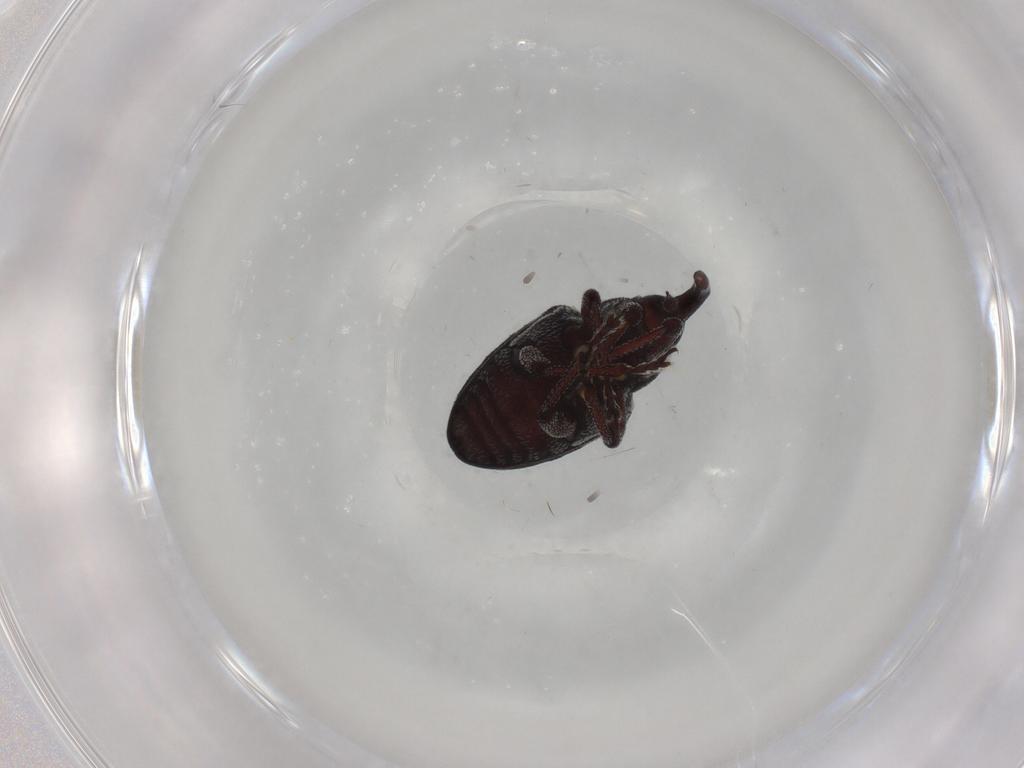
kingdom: Animalia
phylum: Arthropoda
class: Insecta
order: Coleoptera
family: Curculionidae
